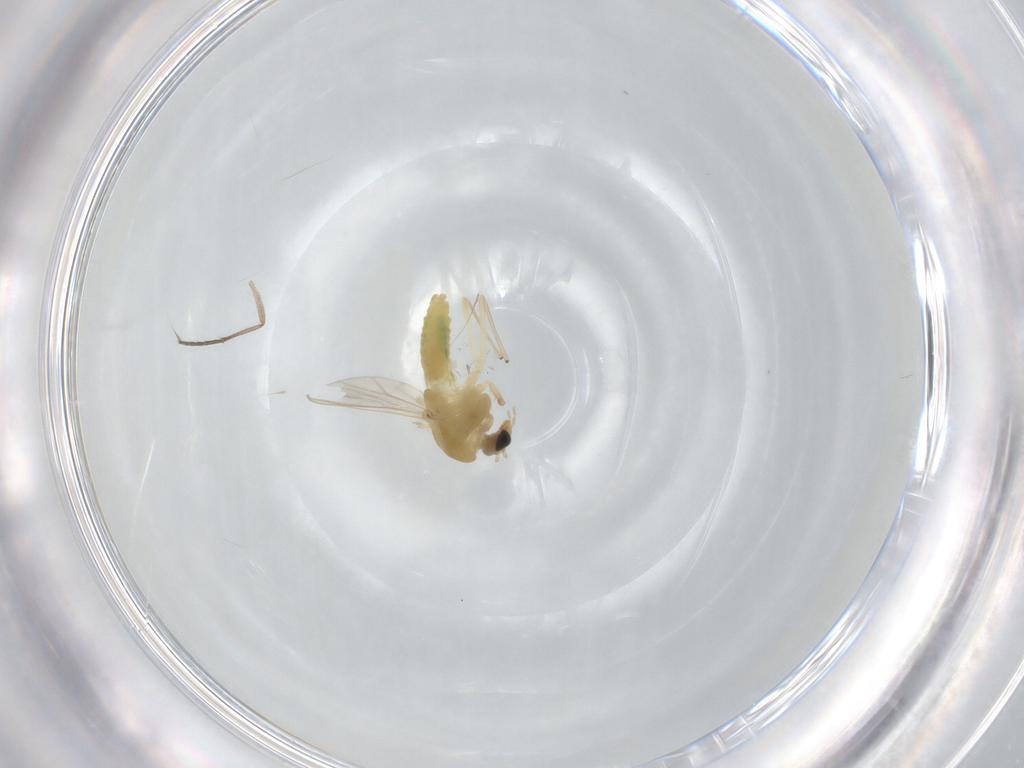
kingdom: Animalia
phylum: Arthropoda
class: Insecta
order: Diptera
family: Chironomidae
